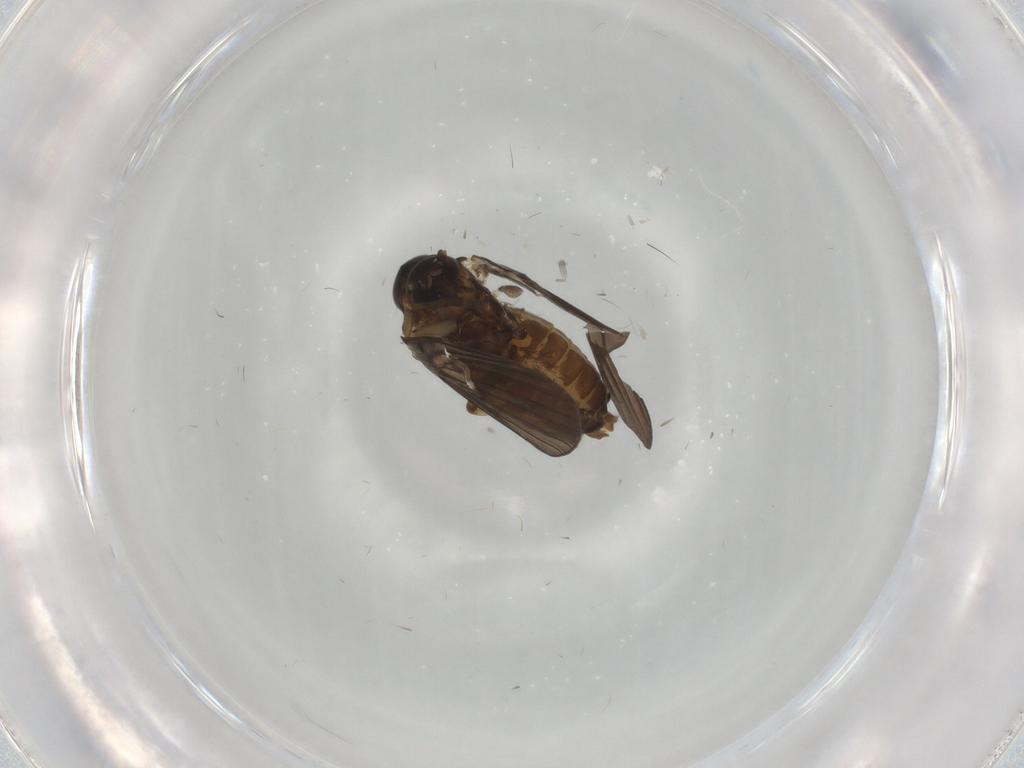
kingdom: Animalia
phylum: Arthropoda
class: Insecta
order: Diptera
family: Psychodidae
